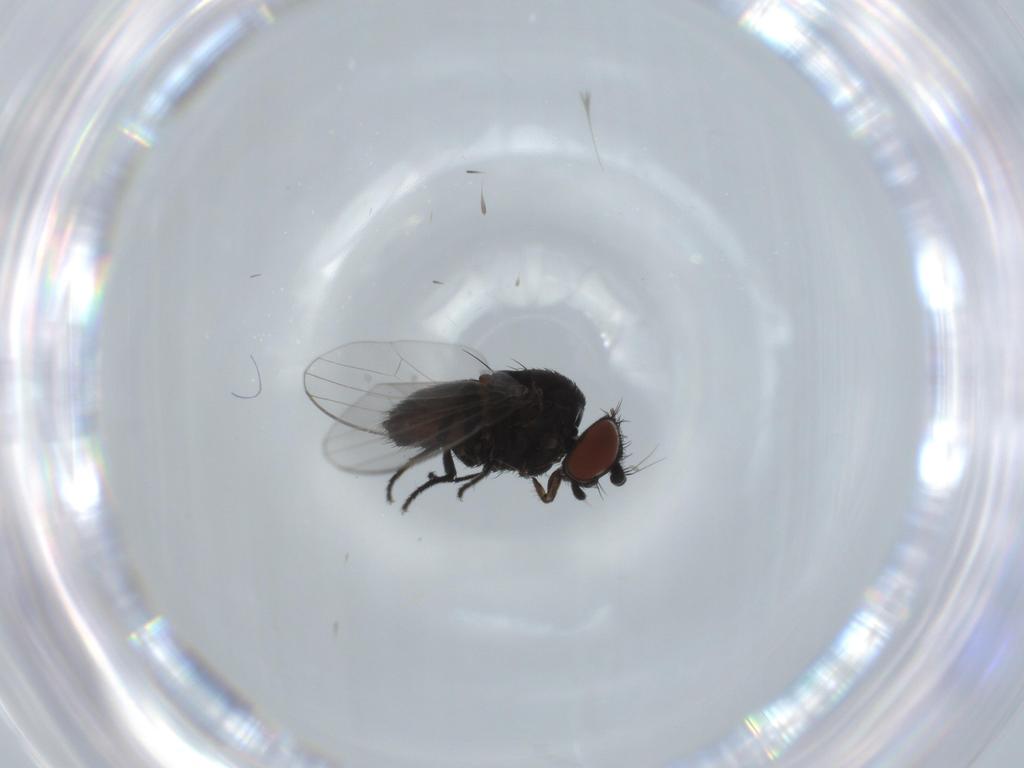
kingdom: Animalia
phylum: Arthropoda
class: Insecta
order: Diptera
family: Milichiidae
